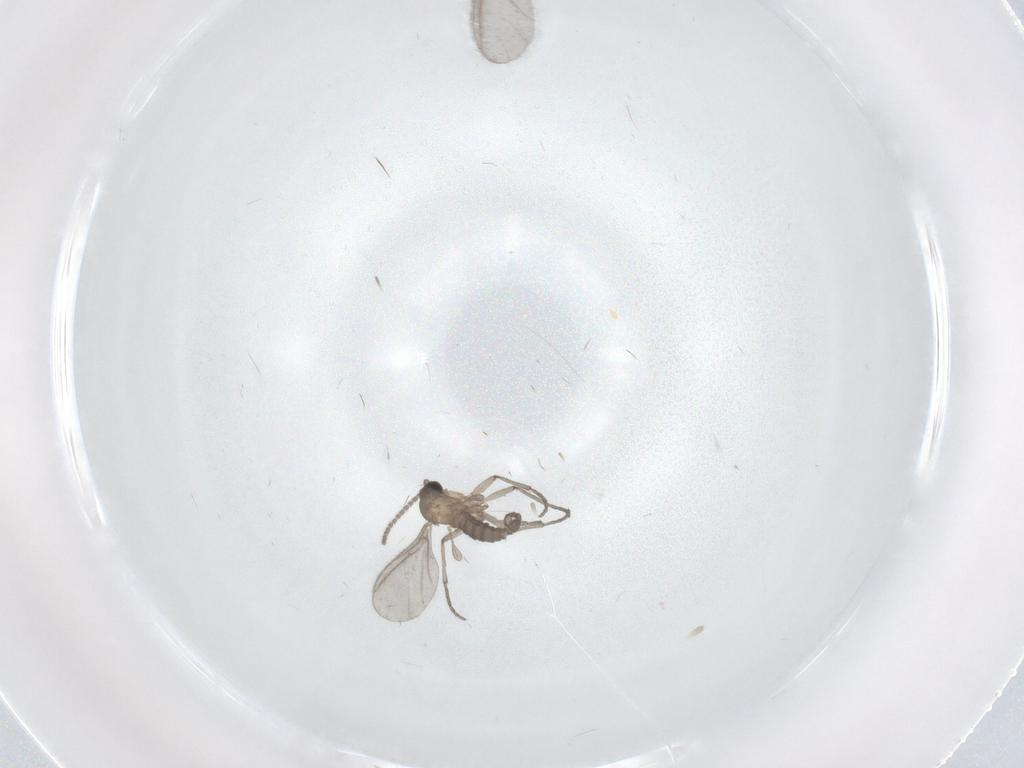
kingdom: Animalia
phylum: Arthropoda
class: Insecta
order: Diptera
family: Sciaridae
